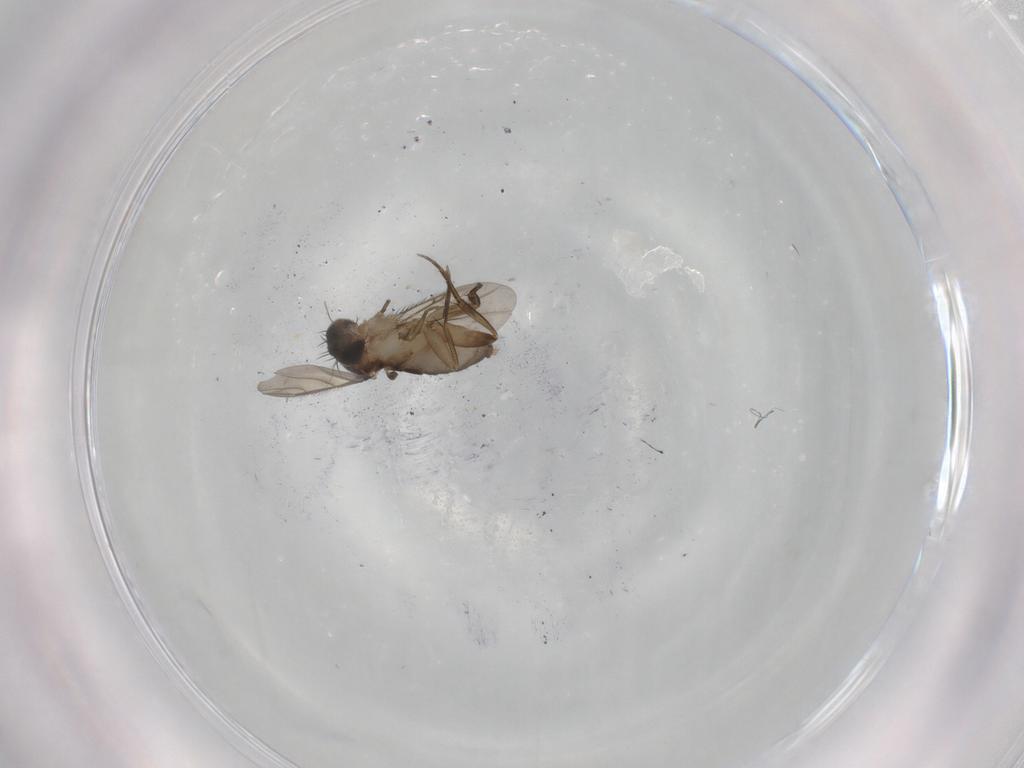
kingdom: Animalia
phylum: Arthropoda
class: Insecta
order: Diptera
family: Phoridae
